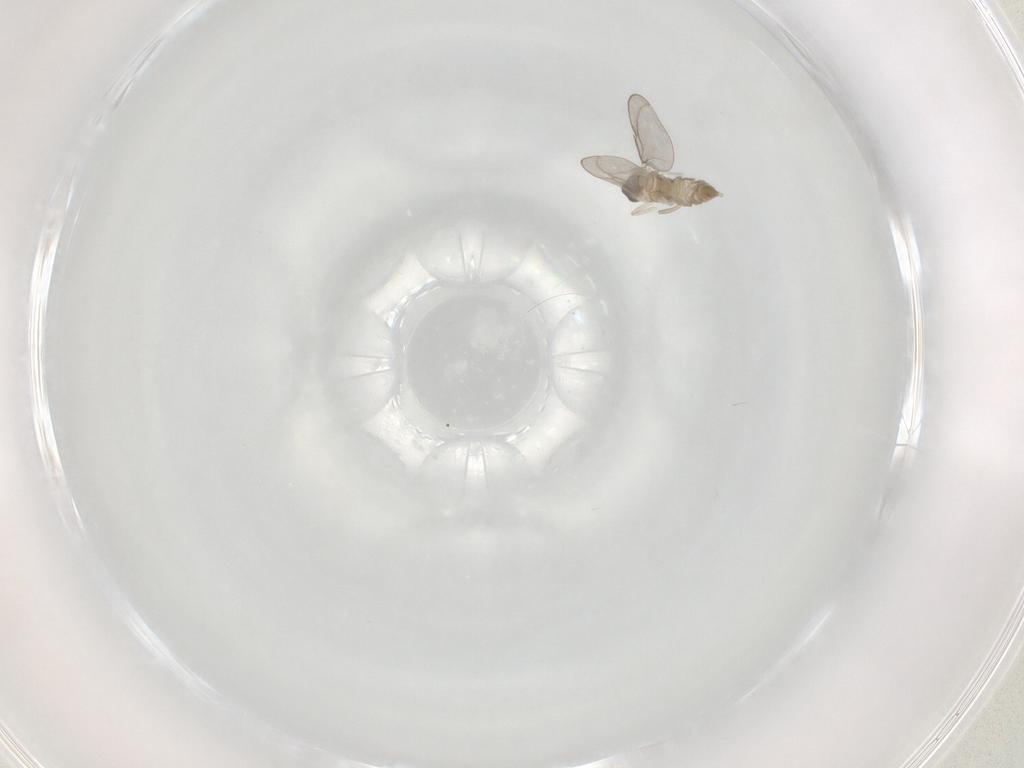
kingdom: Animalia
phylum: Arthropoda
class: Insecta
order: Diptera
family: Cecidomyiidae
